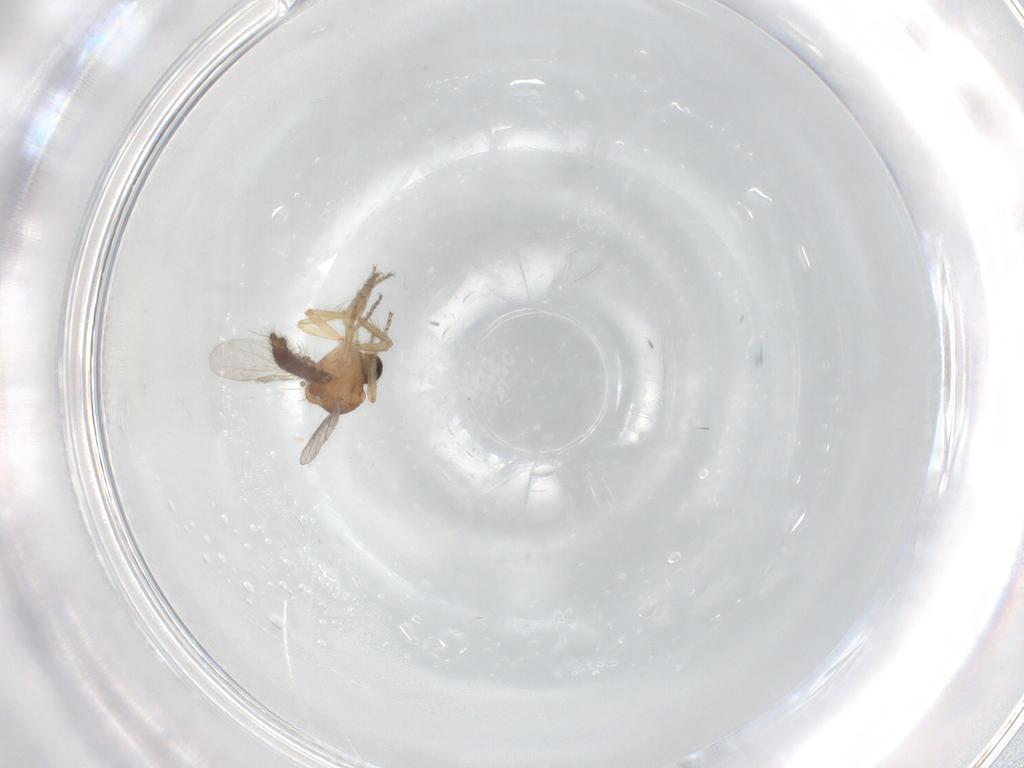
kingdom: Animalia
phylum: Arthropoda
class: Insecta
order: Diptera
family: Ceratopogonidae
